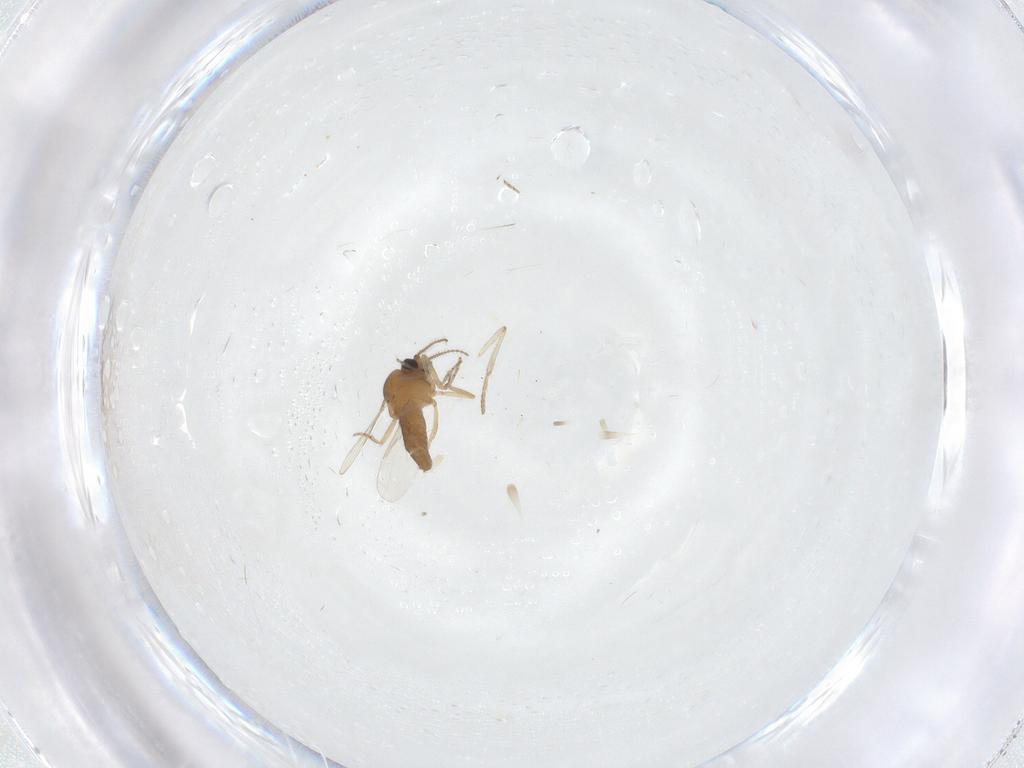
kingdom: Animalia
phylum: Arthropoda
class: Insecta
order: Diptera
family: Ceratopogonidae
